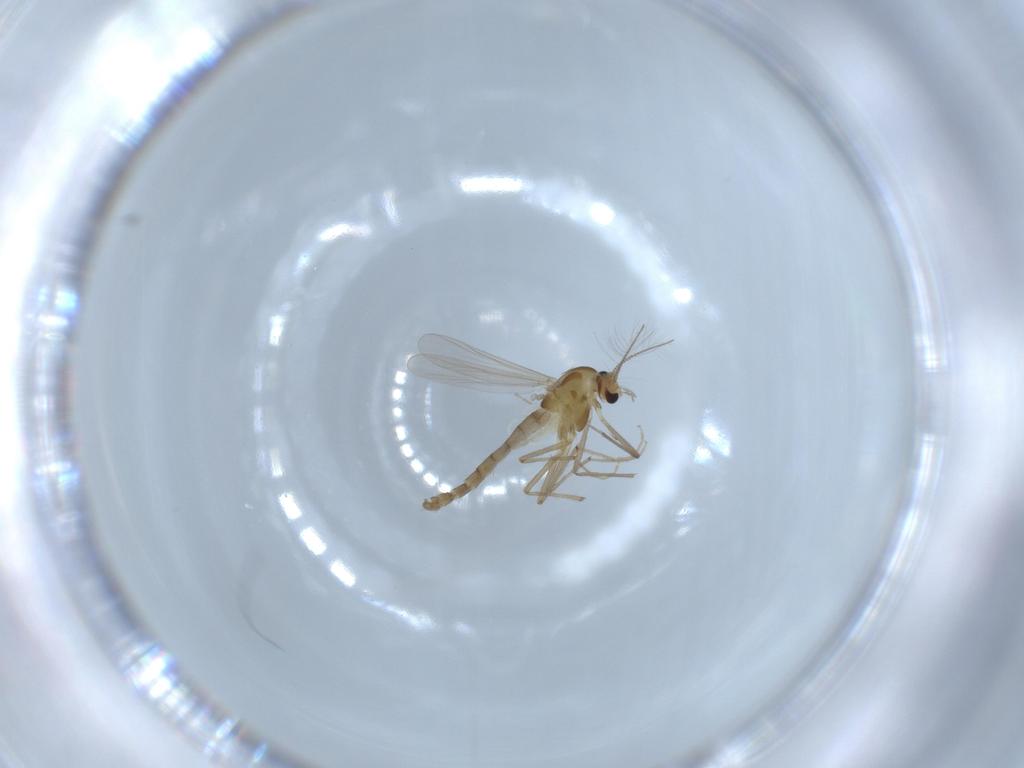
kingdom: Animalia
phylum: Arthropoda
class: Insecta
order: Diptera
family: Sciaridae
